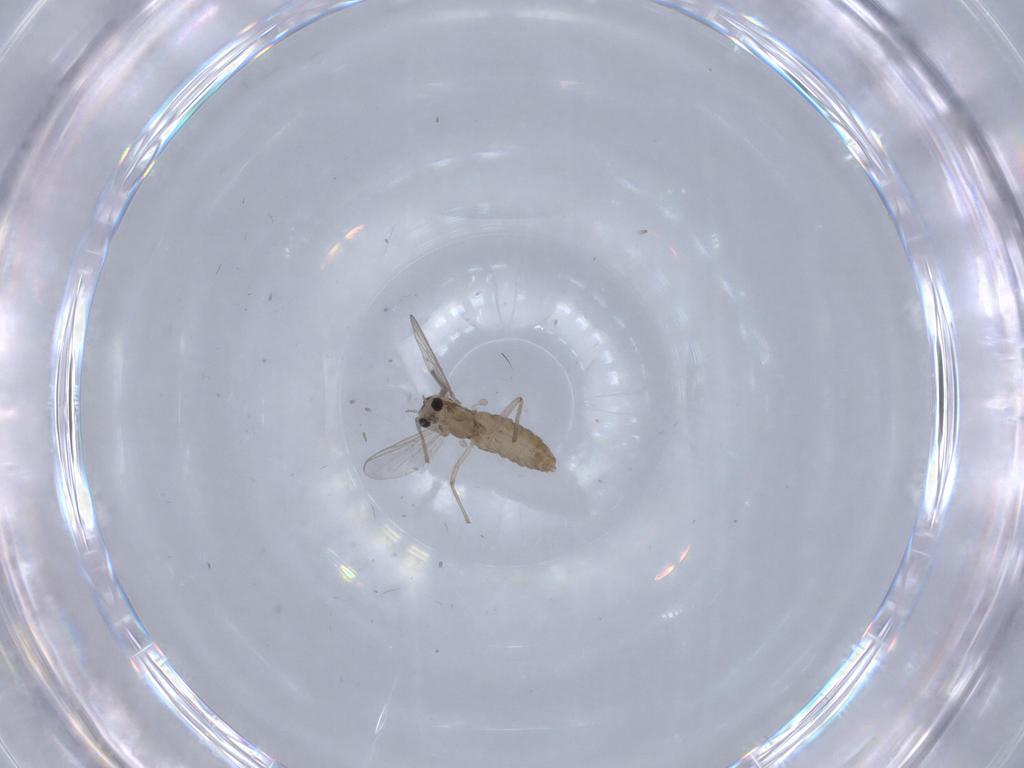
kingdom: Animalia
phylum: Arthropoda
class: Insecta
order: Diptera
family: Chironomidae
